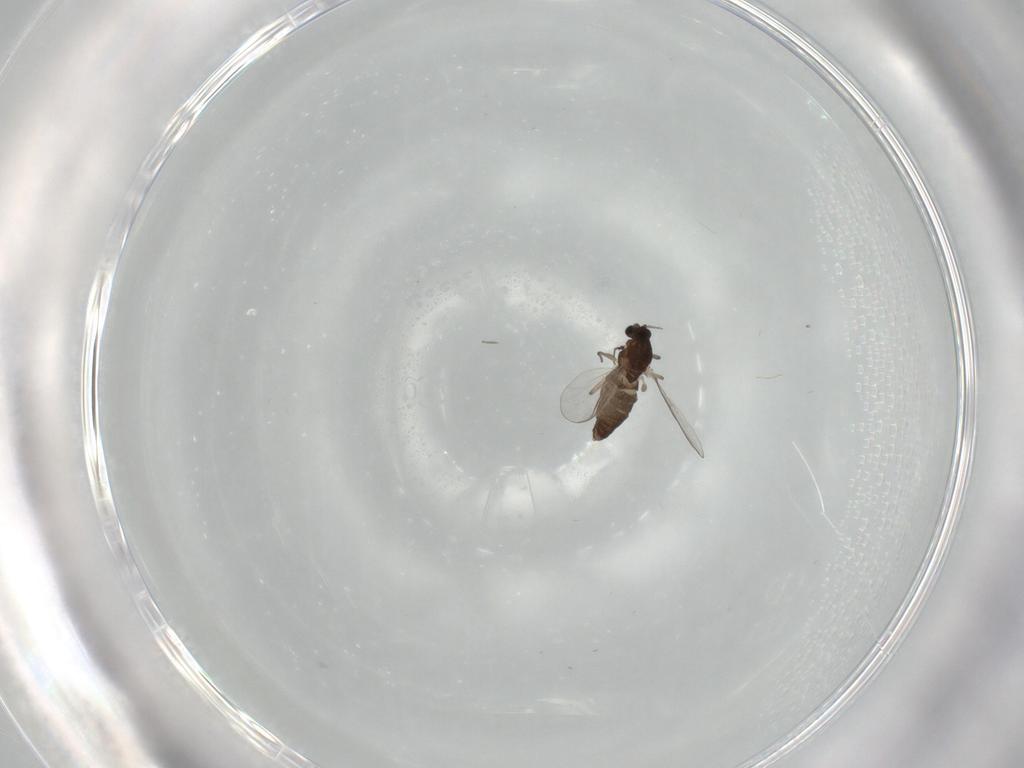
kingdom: Animalia
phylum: Arthropoda
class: Insecta
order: Diptera
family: Chironomidae
